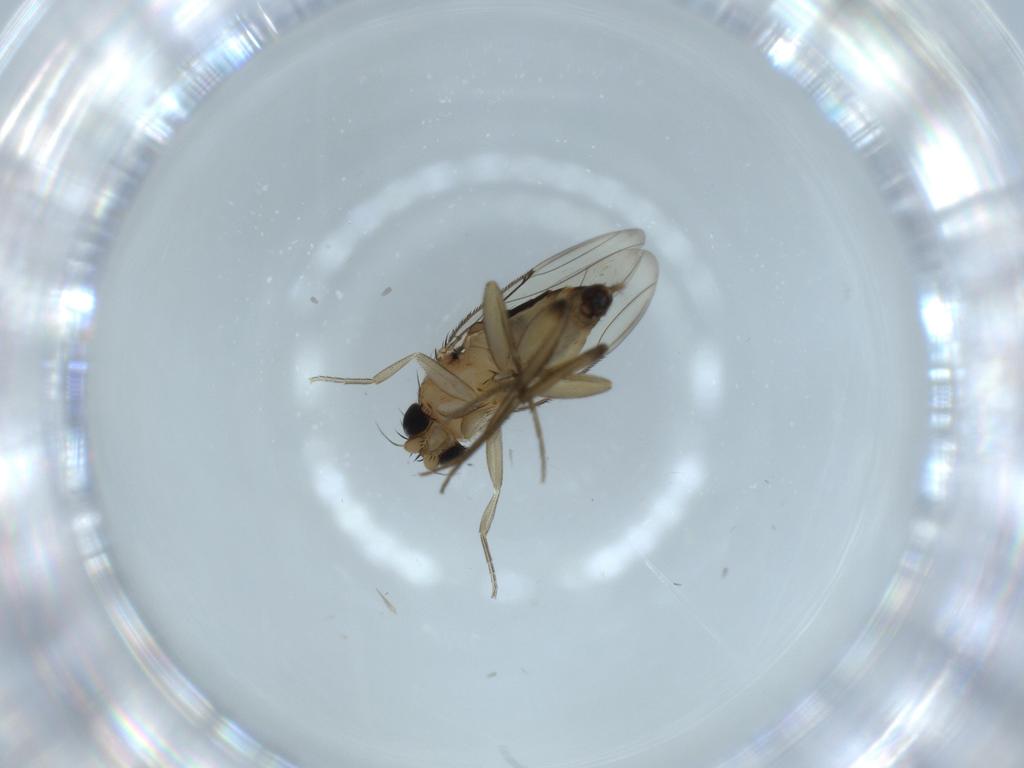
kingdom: Animalia
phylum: Arthropoda
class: Insecta
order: Diptera
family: Phoridae
